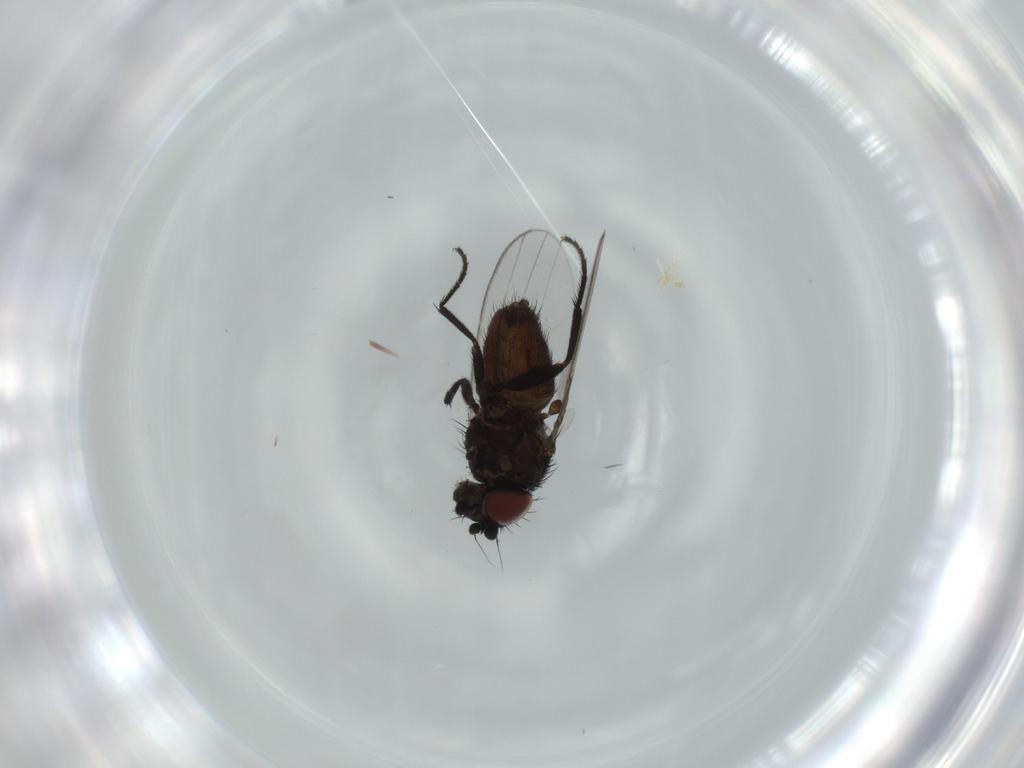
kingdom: Animalia
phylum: Arthropoda
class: Insecta
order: Diptera
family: Milichiidae
